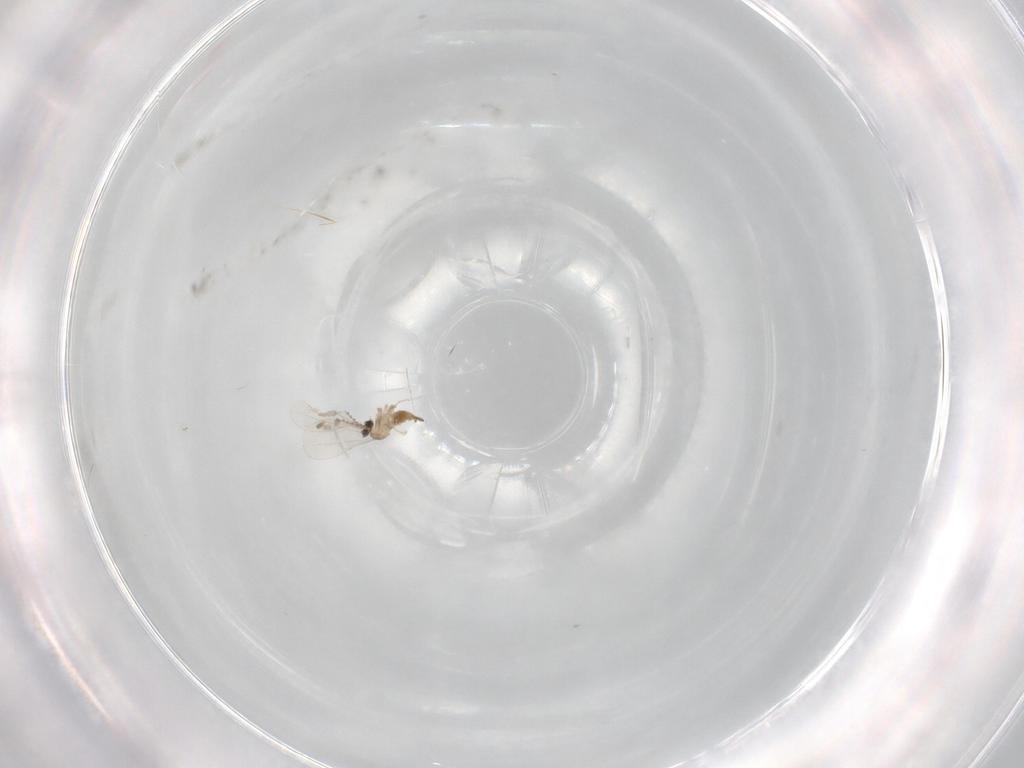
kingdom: Animalia
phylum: Arthropoda
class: Insecta
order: Diptera
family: Cecidomyiidae
